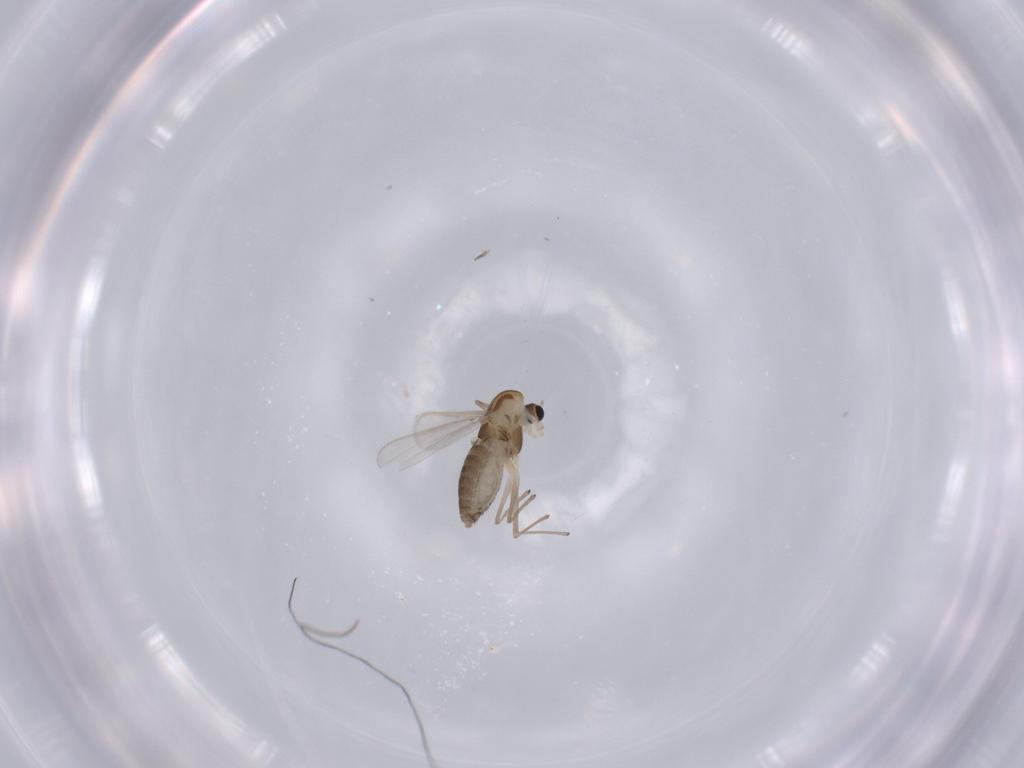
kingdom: Animalia
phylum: Arthropoda
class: Insecta
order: Diptera
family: Chironomidae
